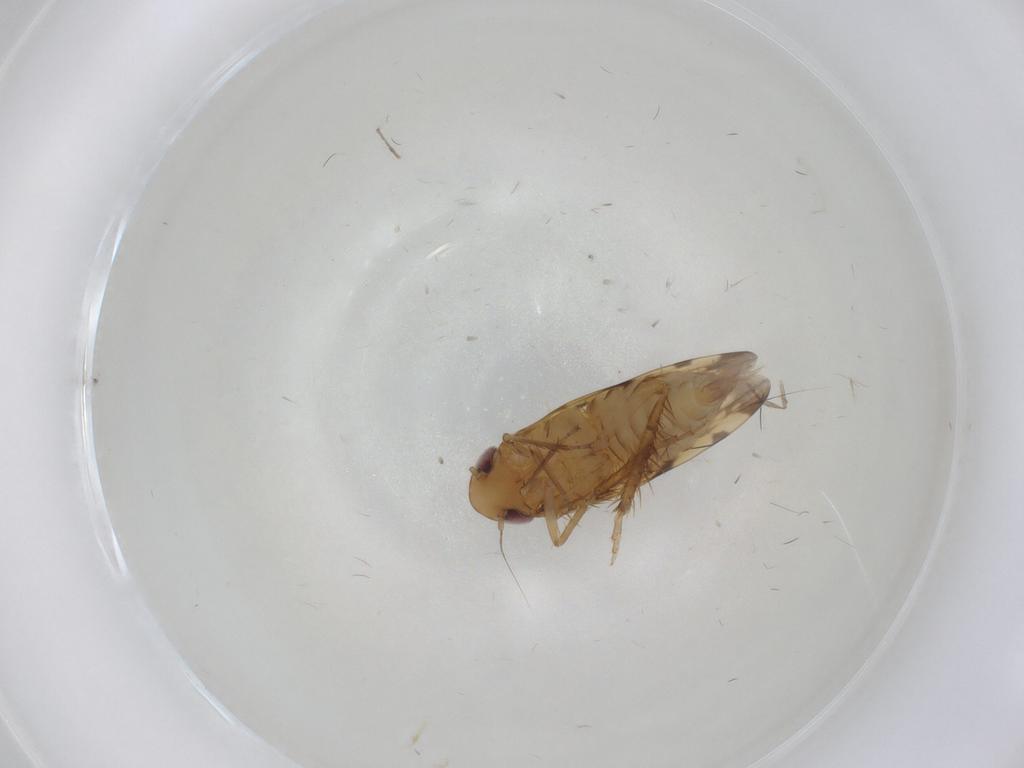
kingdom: Animalia
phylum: Arthropoda
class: Insecta
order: Hemiptera
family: Cicadellidae
